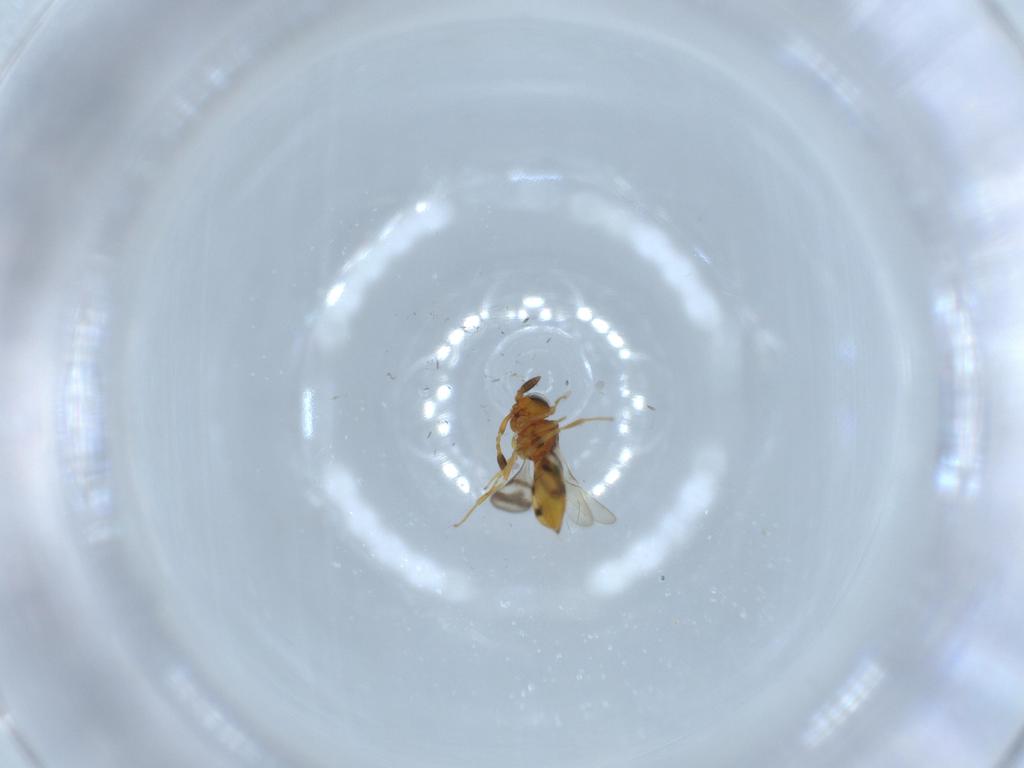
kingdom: Animalia
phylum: Arthropoda
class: Insecta
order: Hymenoptera
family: Scelionidae
